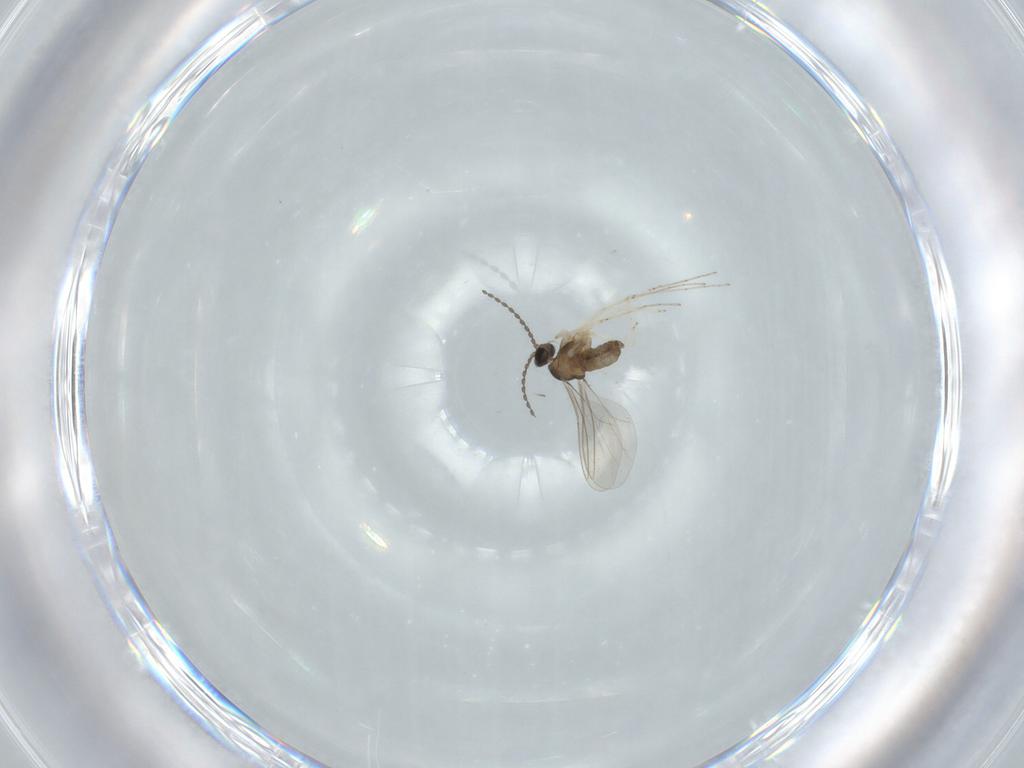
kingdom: Animalia
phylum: Arthropoda
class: Insecta
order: Diptera
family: Cecidomyiidae
